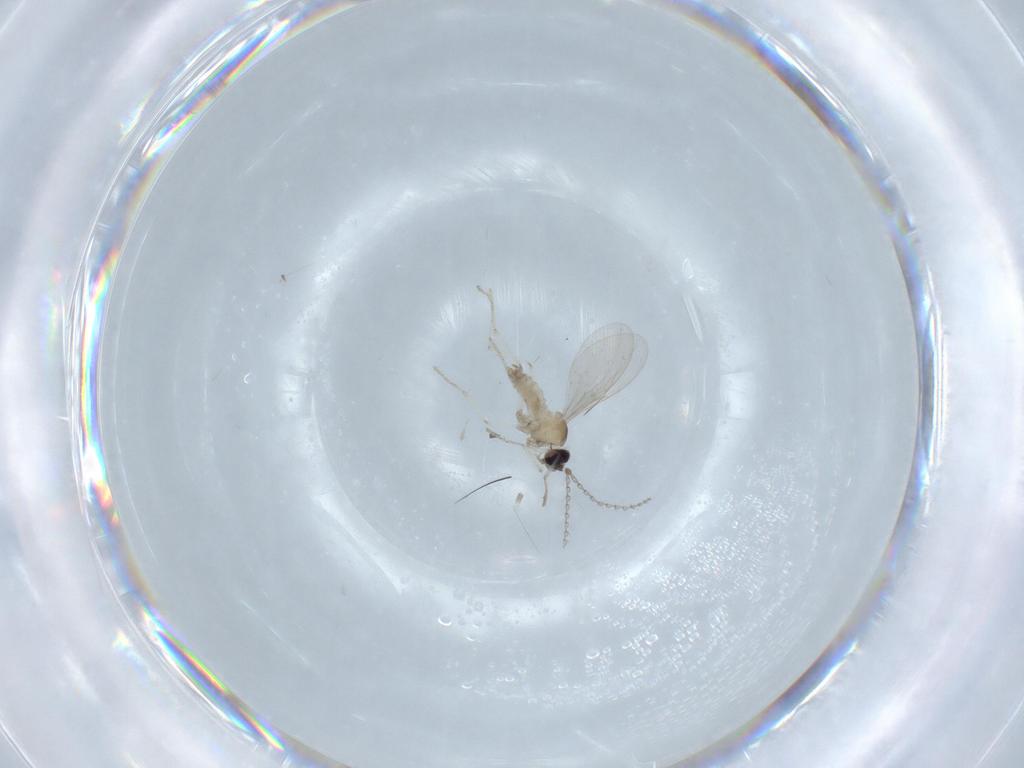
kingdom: Animalia
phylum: Arthropoda
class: Insecta
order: Diptera
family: Cecidomyiidae
